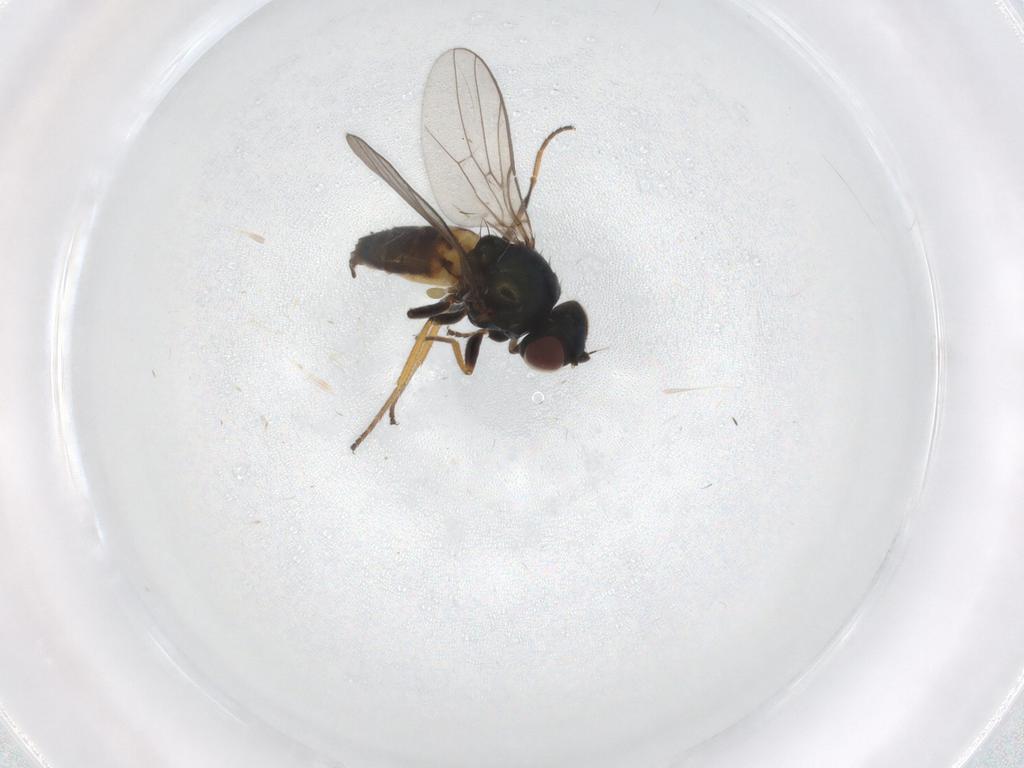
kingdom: Animalia
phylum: Arthropoda
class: Insecta
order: Diptera
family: Chloropidae
